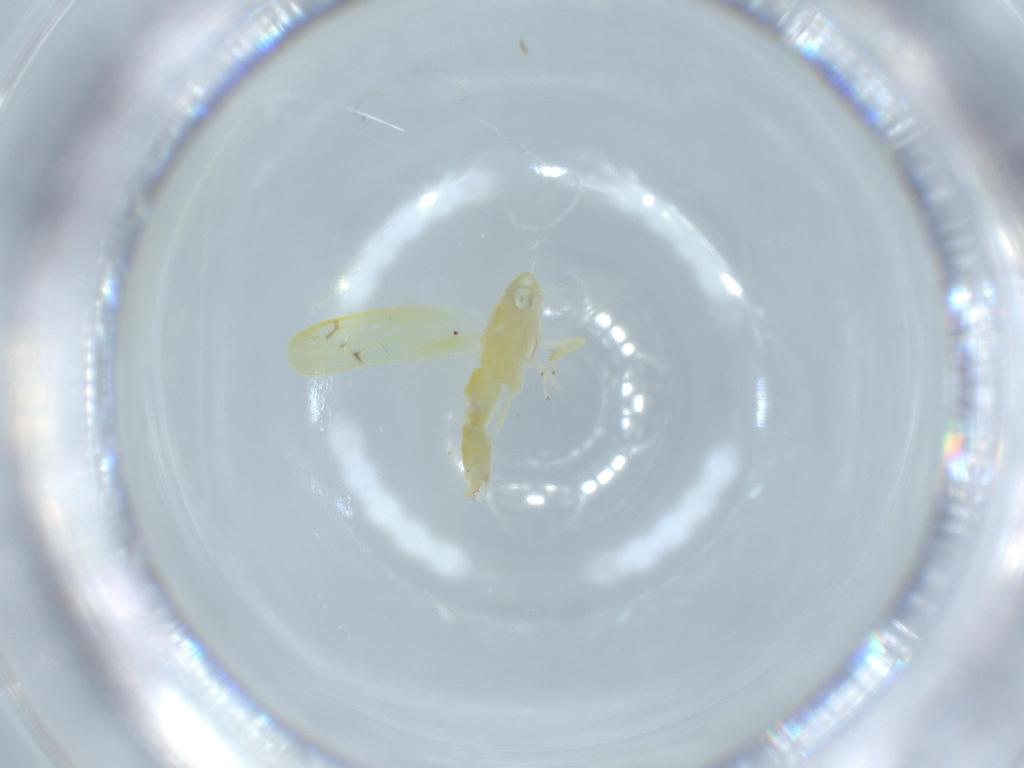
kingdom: Animalia
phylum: Arthropoda
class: Insecta
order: Hemiptera
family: Cicadellidae
